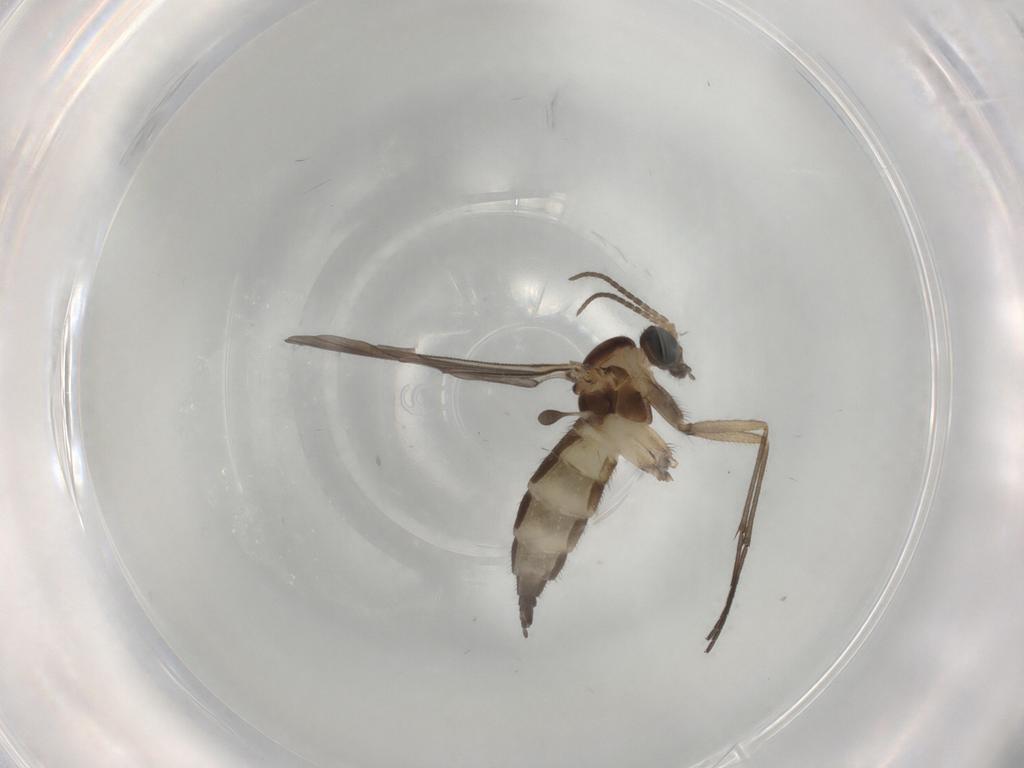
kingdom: Animalia
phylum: Arthropoda
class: Insecta
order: Diptera
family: Sciaridae
